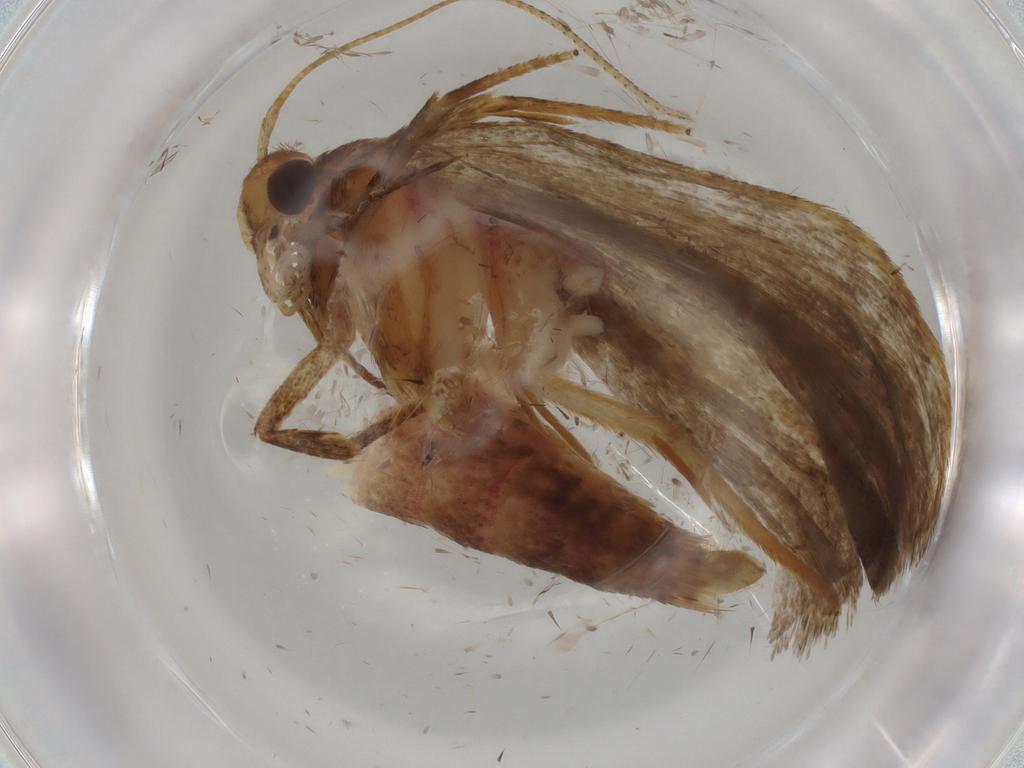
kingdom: Animalia
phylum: Arthropoda
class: Insecta
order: Lepidoptera
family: Autostichidae
